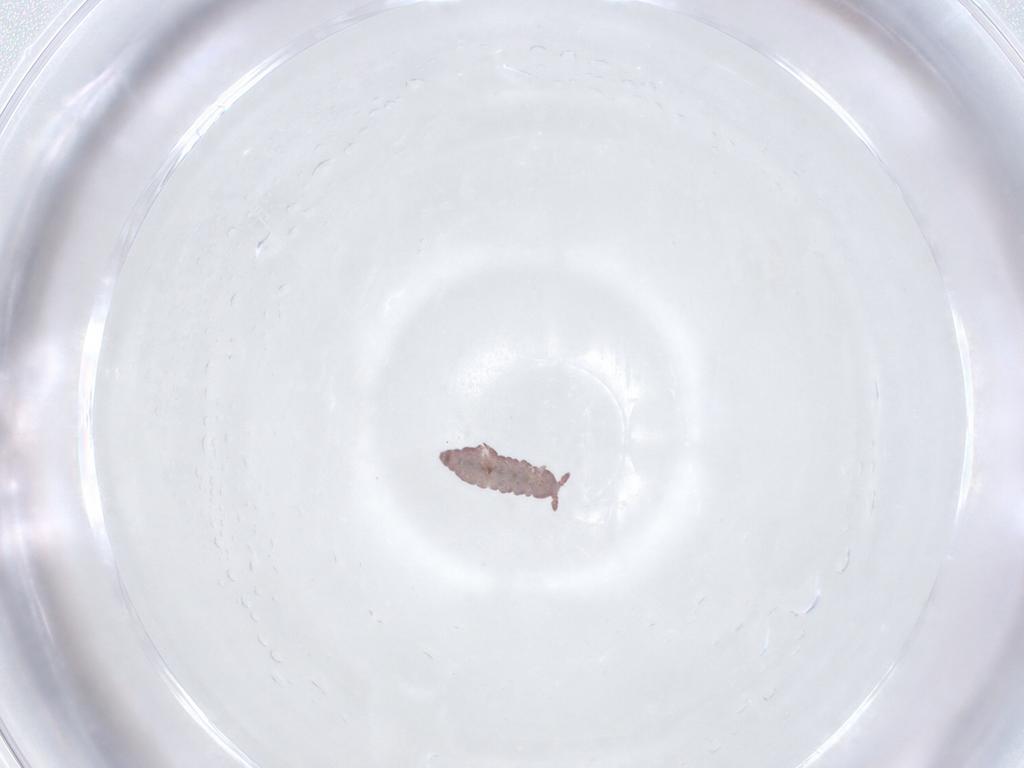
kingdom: Animalia
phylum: Arthropoda
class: Collembola
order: Poduromorpha
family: Hypogastruridae
